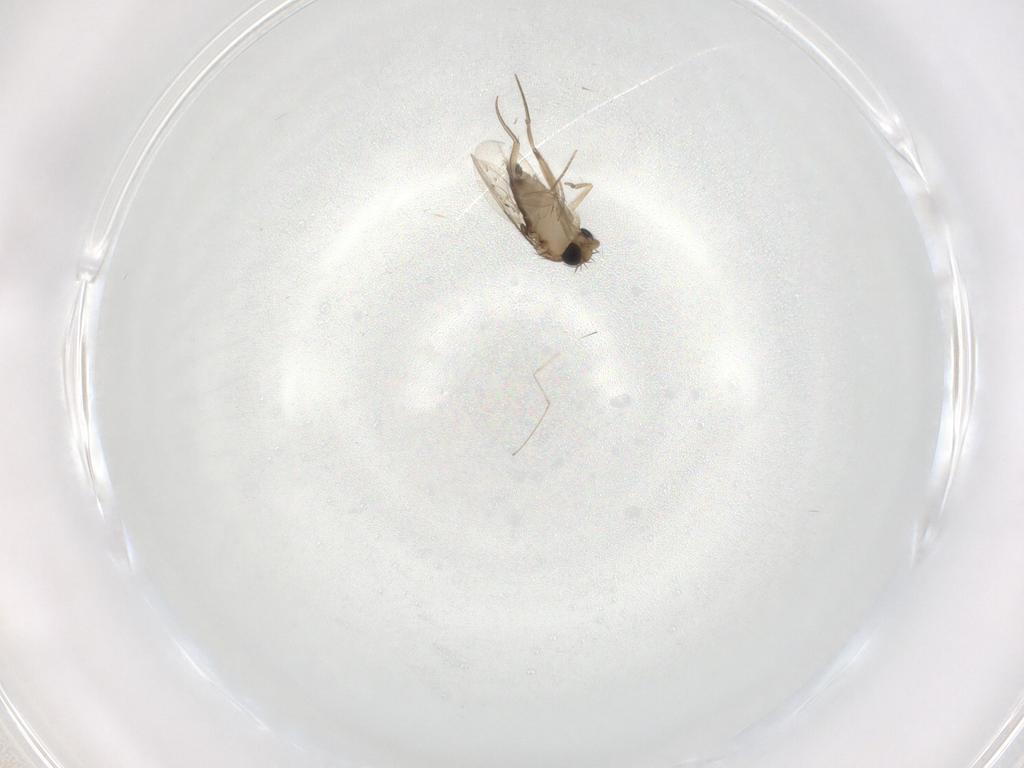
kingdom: Animalia
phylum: Arthropoda
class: Insecta
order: Diptera
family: Phoridae
